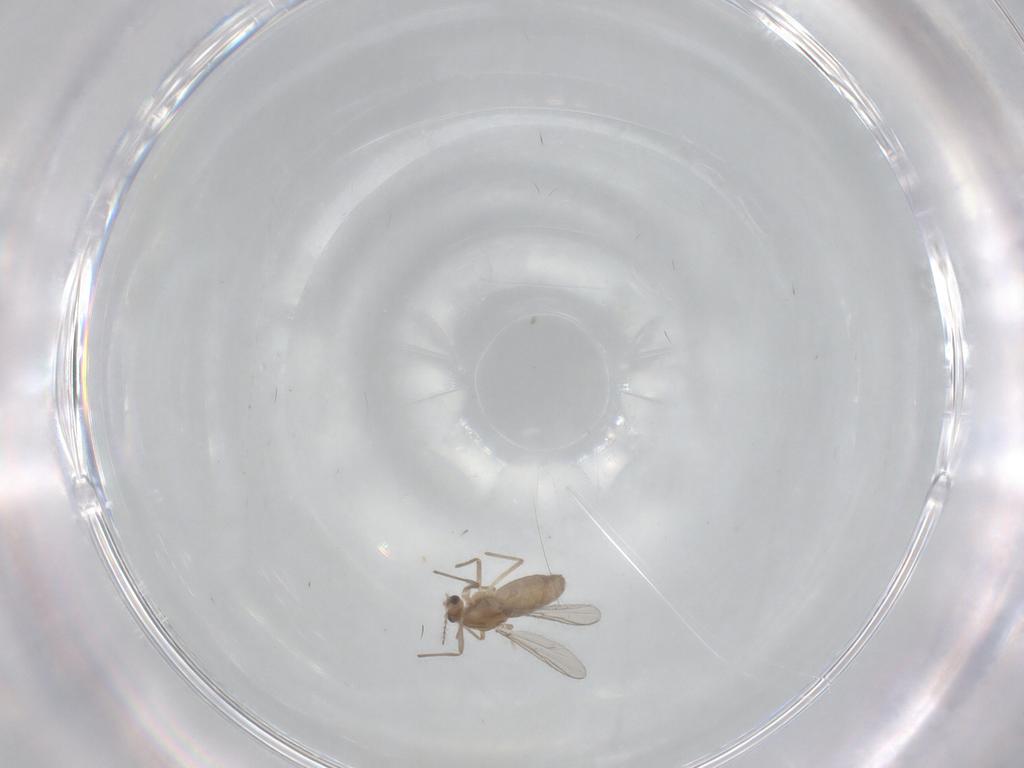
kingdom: Animalia
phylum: Arthropoda
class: Insecta
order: Diptera
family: Chironomidae
